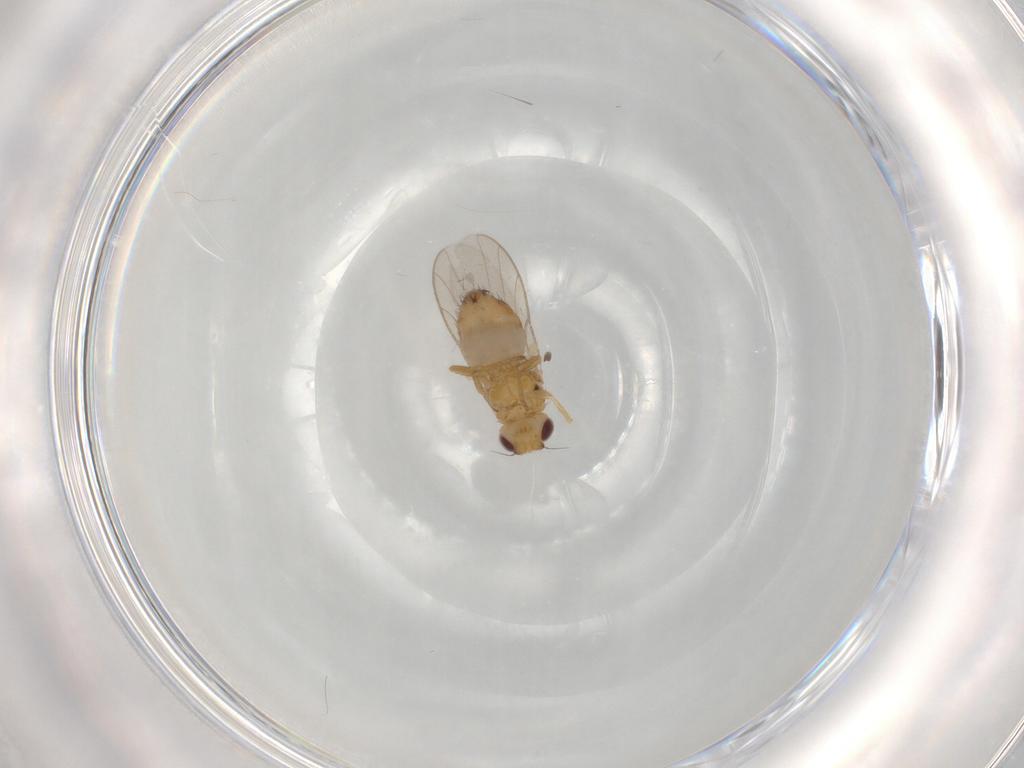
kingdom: Animalia
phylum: Arthropoda
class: Insecta
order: Diptera
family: Chloropidae
